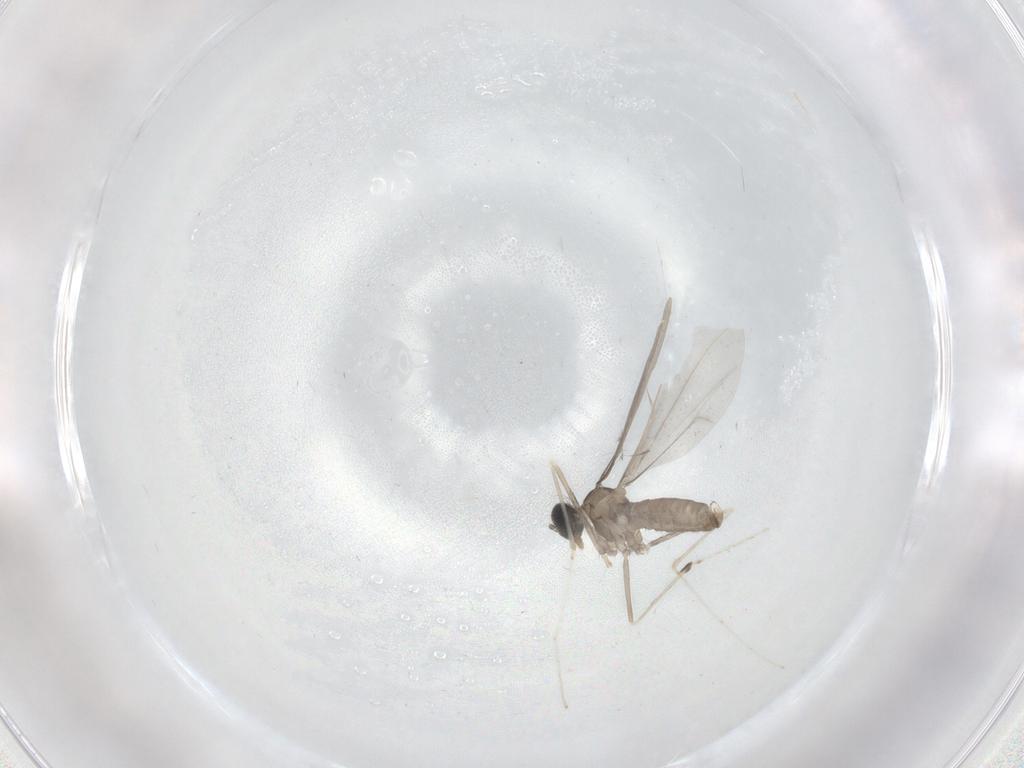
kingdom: Animalia
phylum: Arthropoda
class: Insecta
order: Diptera
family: Cecidomyiidae
